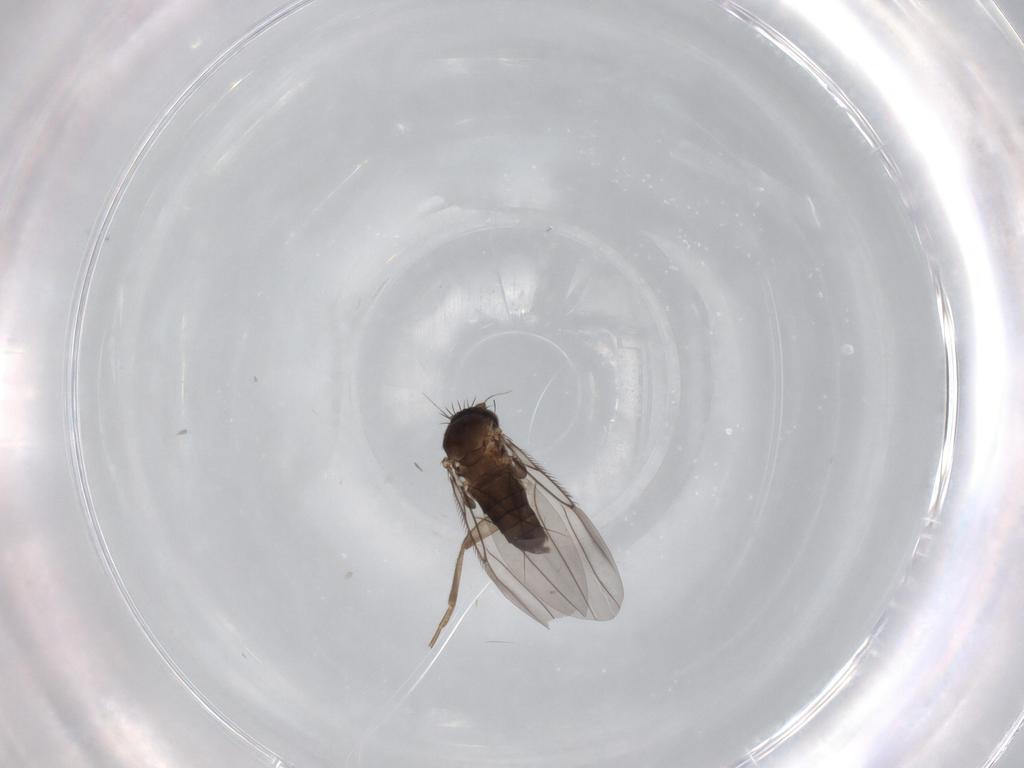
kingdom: Animalia
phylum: Arthropoda
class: Insecta
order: Diptera
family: Phoridae
